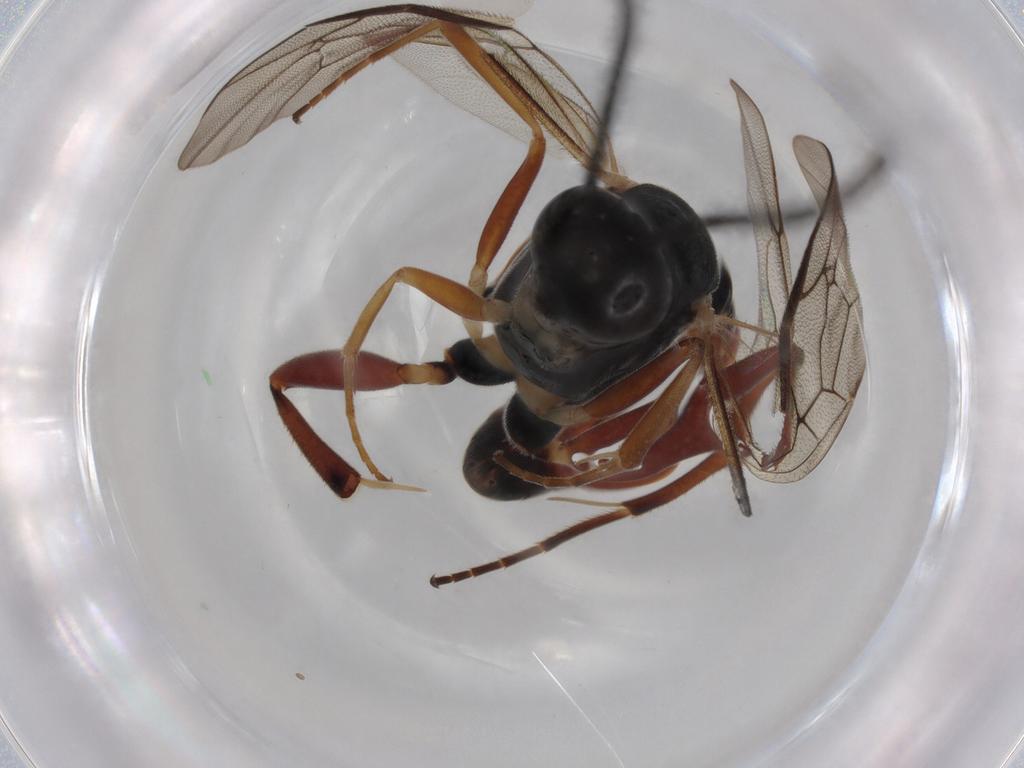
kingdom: Animalia
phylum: Arthropoda
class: Insecta
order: Hymenoptera
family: Ichneumonidae
